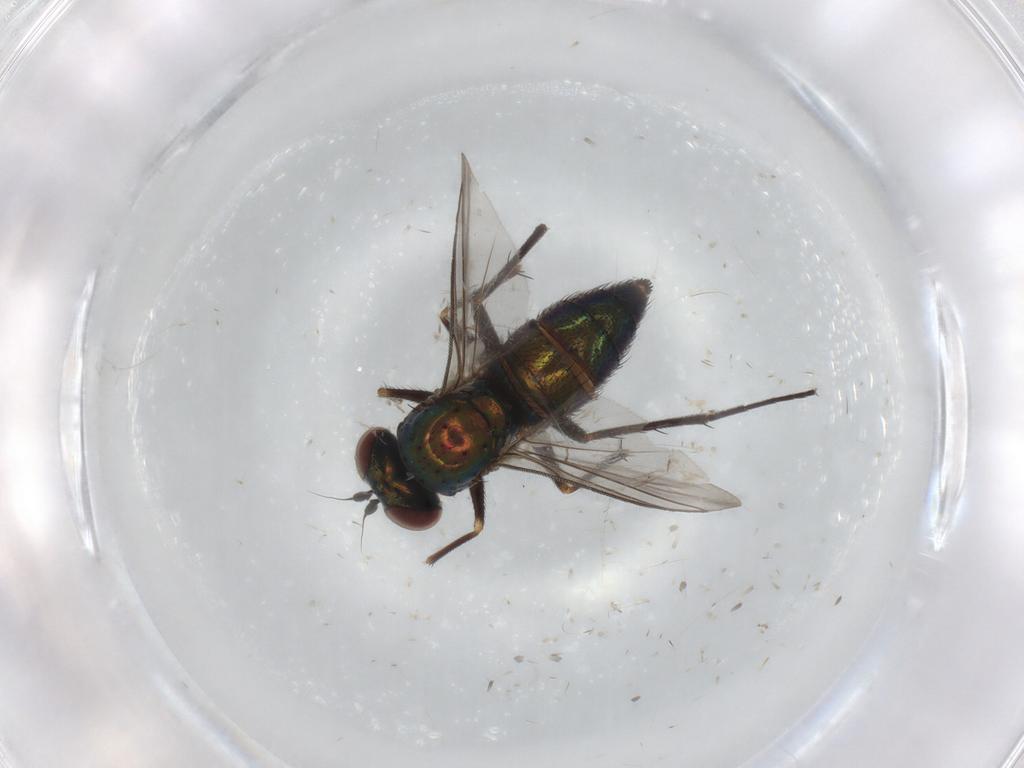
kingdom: Animalia
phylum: Arthropoda
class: Insecta
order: Diptera
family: Dolichopodidae
